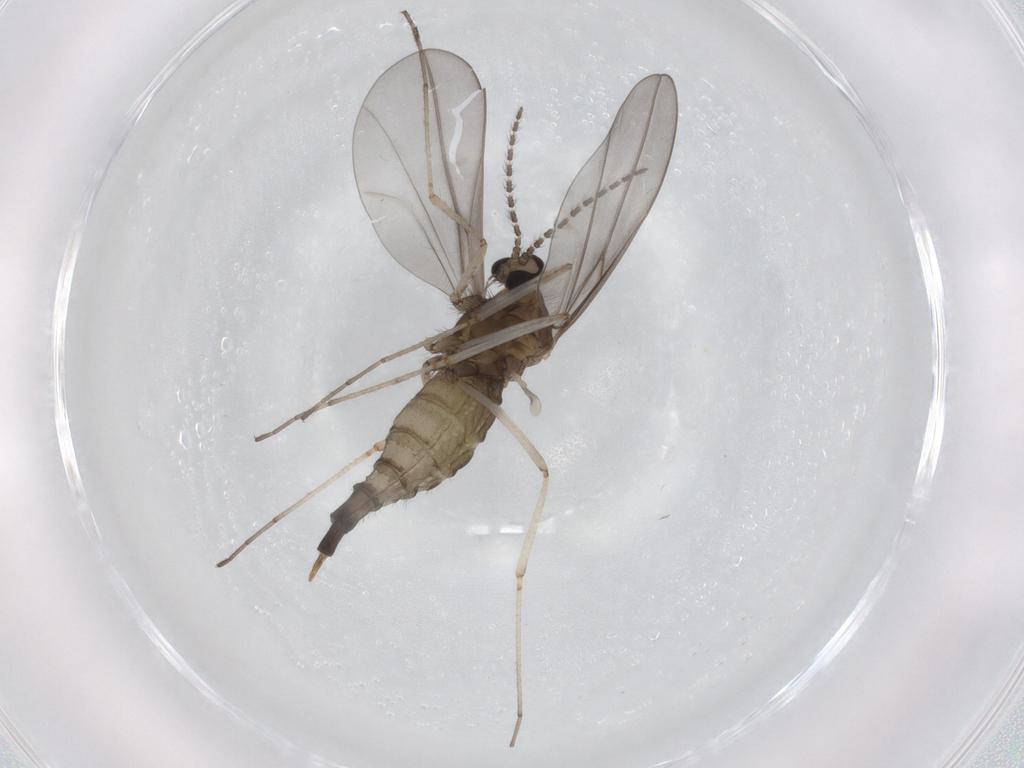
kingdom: Animalia
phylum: Arthropoda
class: Insecta
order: Diptera
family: Cecidomyiidae
